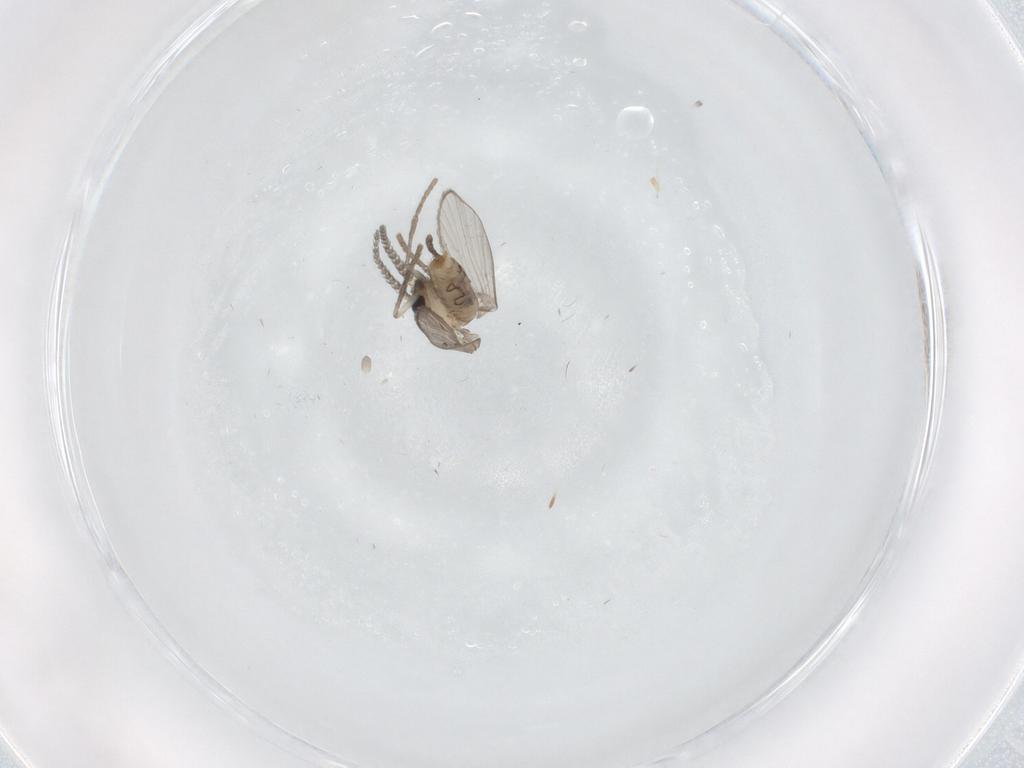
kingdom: Animalia
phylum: Arthropoda
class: Insecta
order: Diptera
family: Psychodidae
